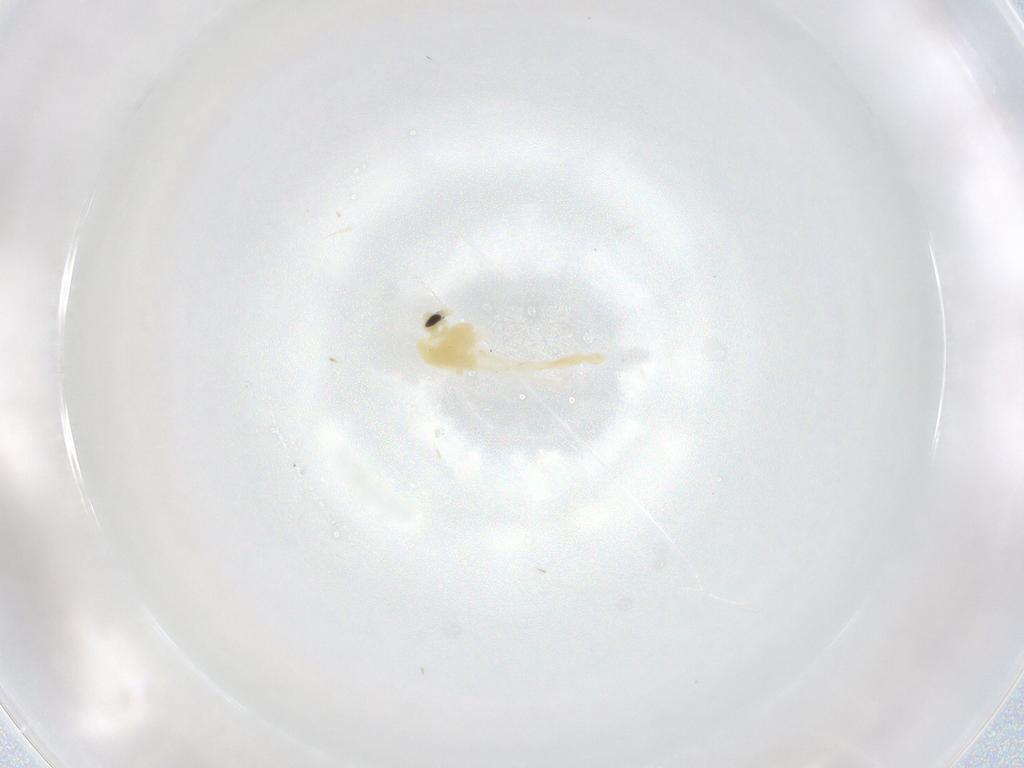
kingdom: Animalia
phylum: Arthropoda
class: Insecta
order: Diptera
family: Chironomidae
